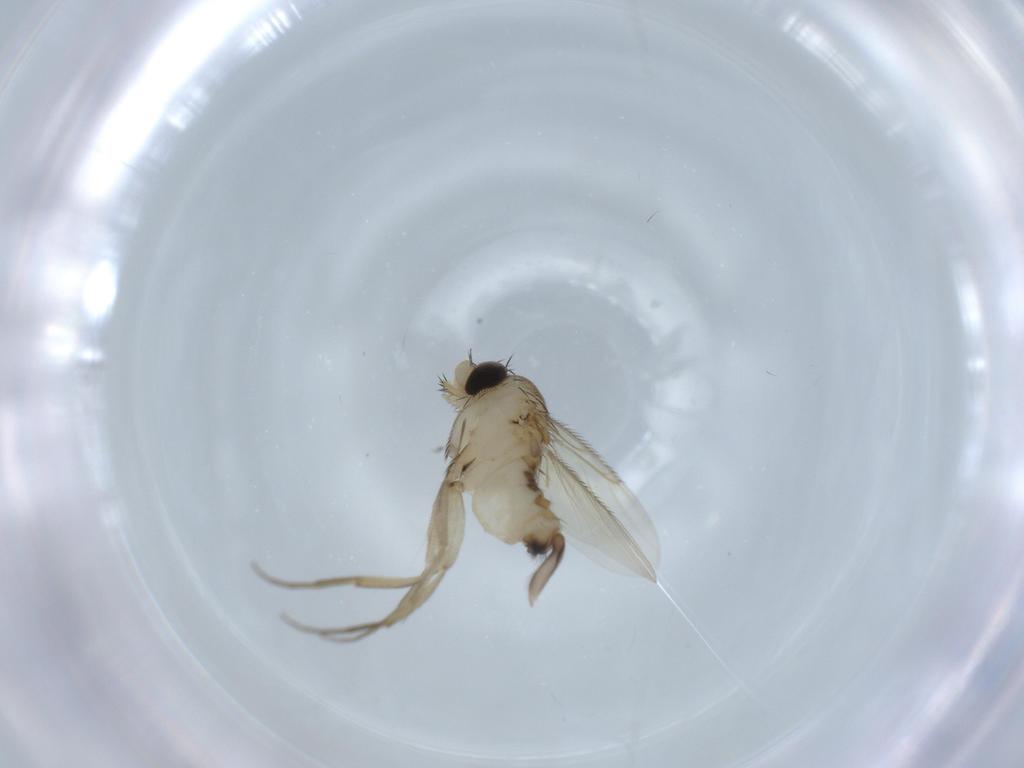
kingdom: Animalia
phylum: Arthropoda
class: Insecta
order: Diptera
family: Phoridae
